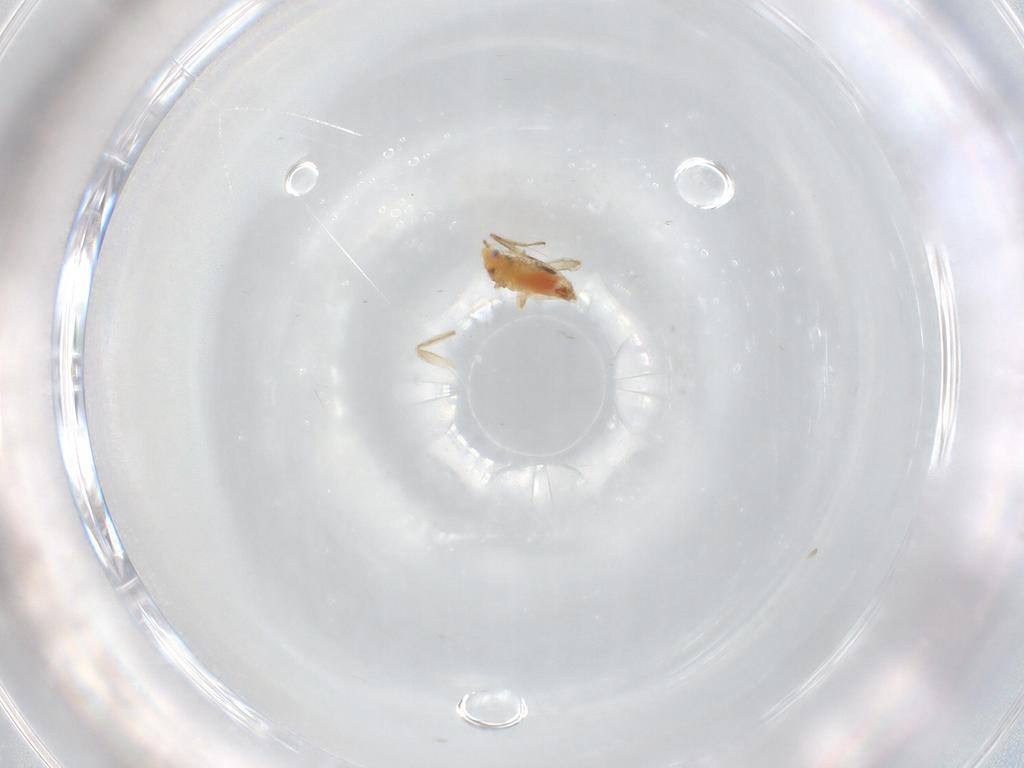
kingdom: Animalia
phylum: Arthropoda
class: Insecta
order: Hemiptera
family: Miridae
